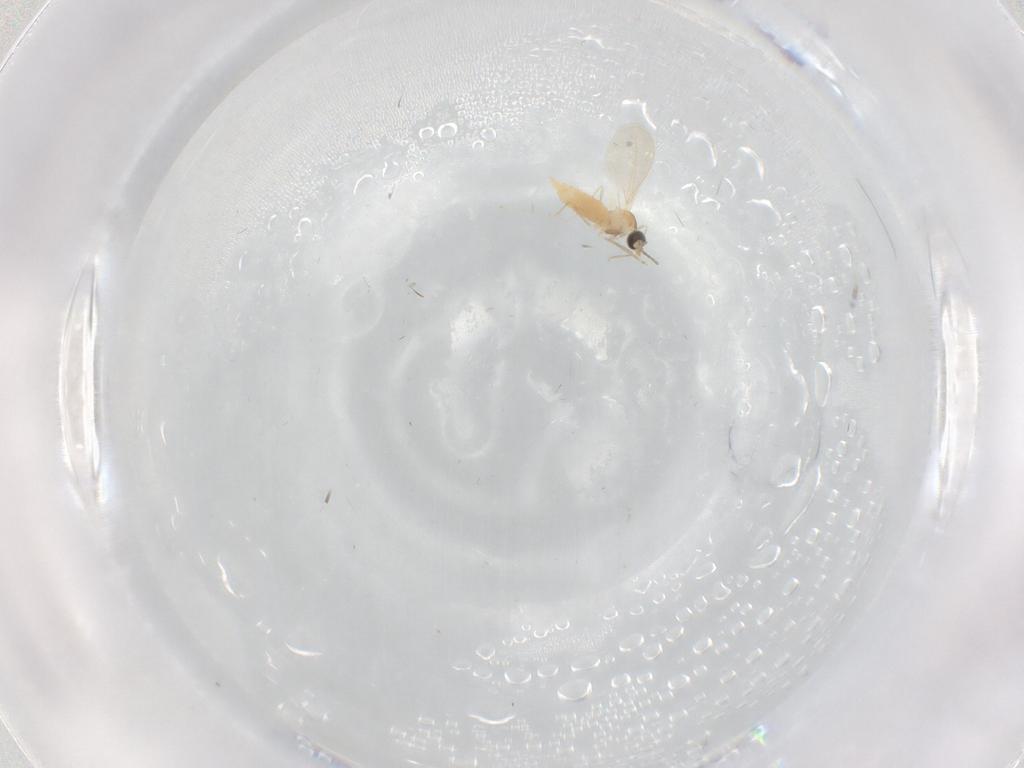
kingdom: Animalia
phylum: Arthropoda
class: Insecta
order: Diptera
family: Cecidomyiidae
